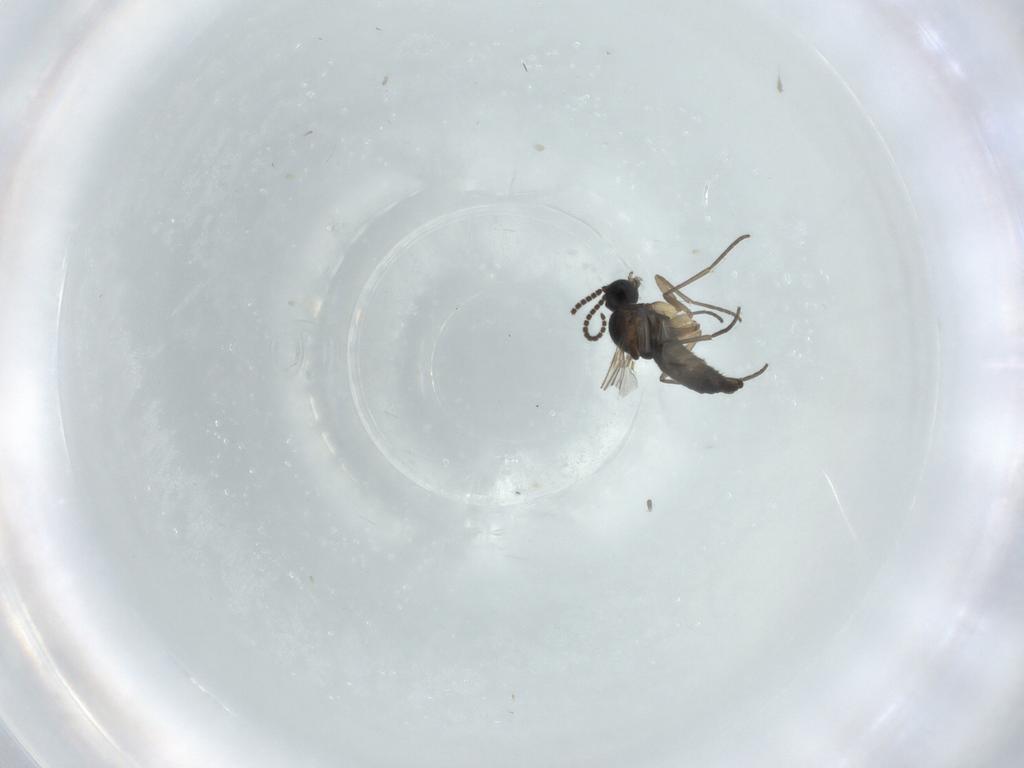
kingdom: Animalia
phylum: Arthropoda
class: Insecta
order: Diptera
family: Sciaridae
